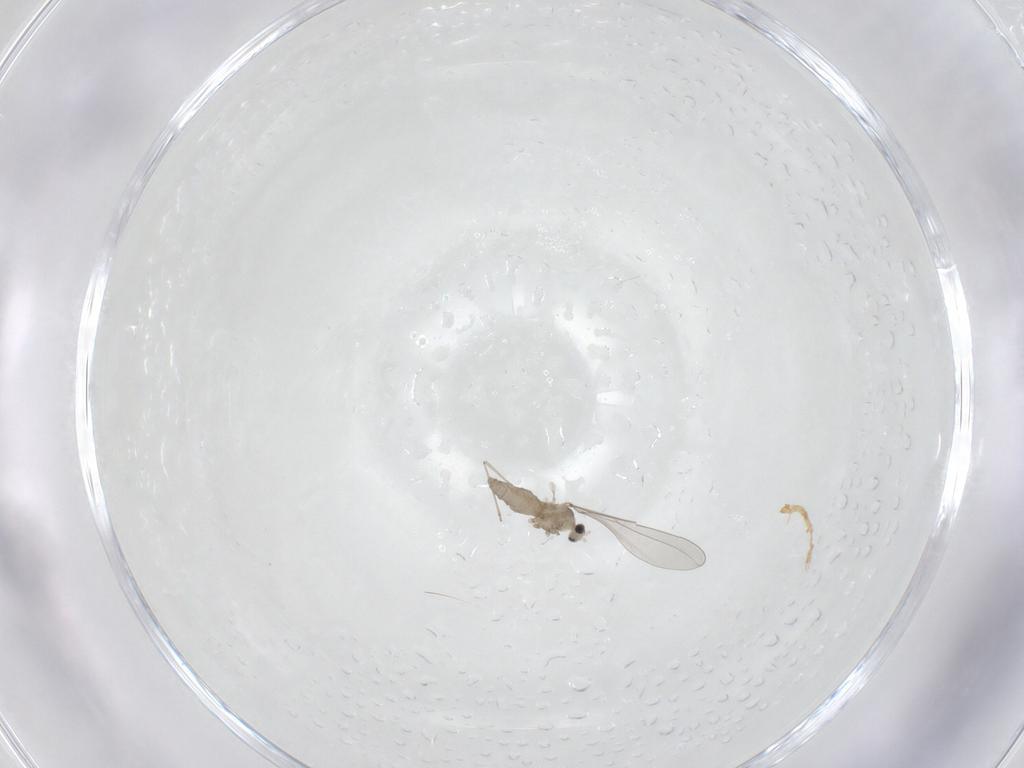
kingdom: Animalia
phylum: Arthropoda
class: Insecta
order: Diptera
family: Cecidomyiidae
